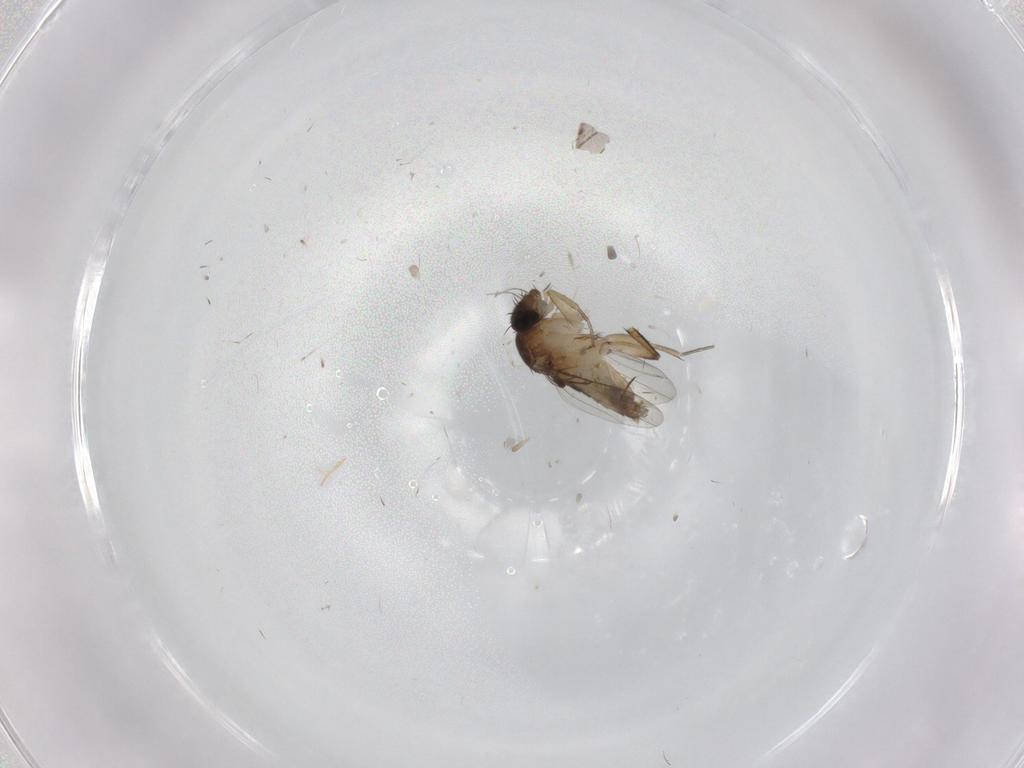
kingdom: Animalia
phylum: Arthropoda
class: Insecta
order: Diptera
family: Phoridae
